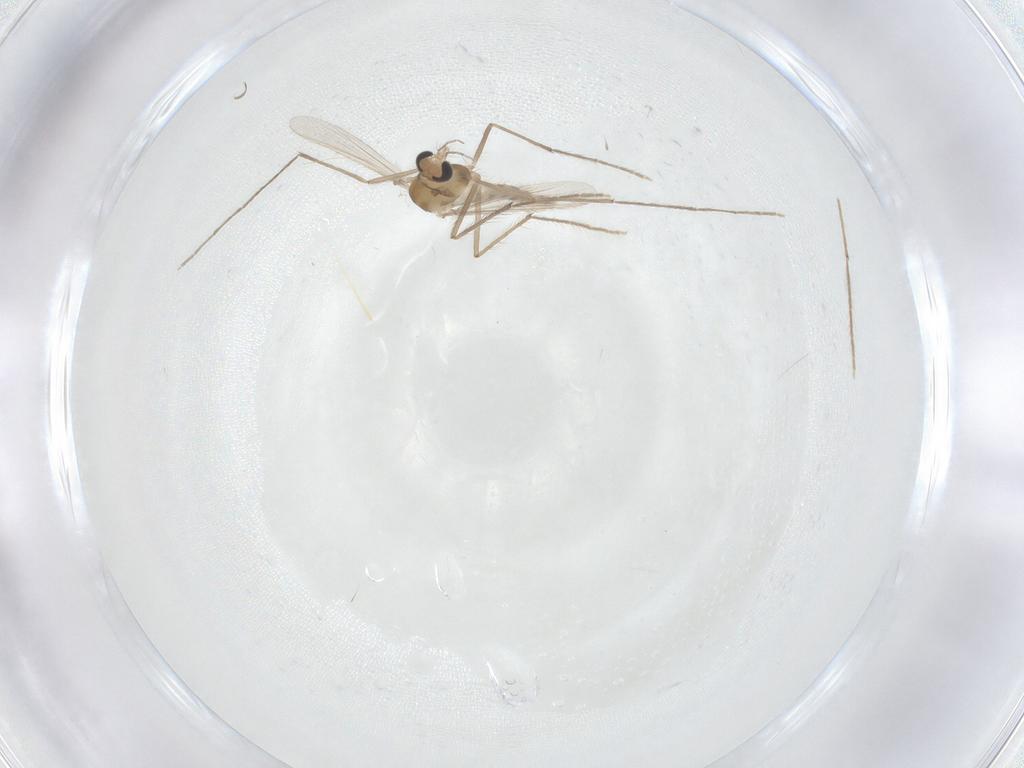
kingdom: Animalia
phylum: Arthropoda
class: Insecta
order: Diptera
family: Chironomidae
